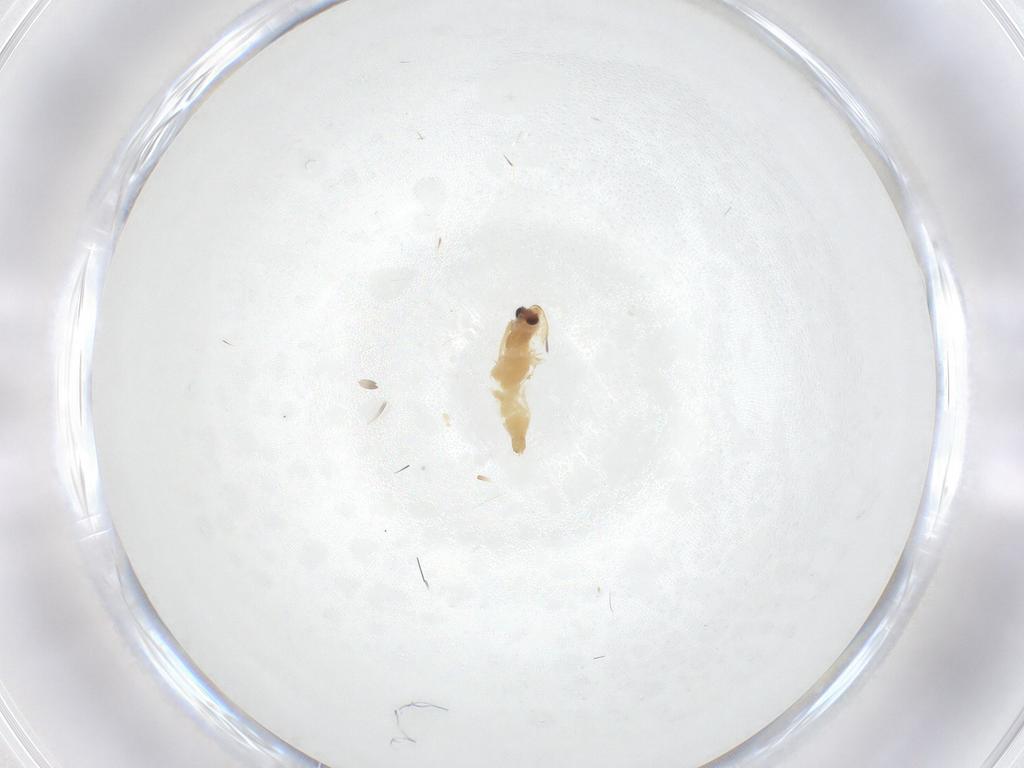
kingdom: Animalia
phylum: Arthropoda
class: Insecta
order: Diptera
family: Chironomidae
